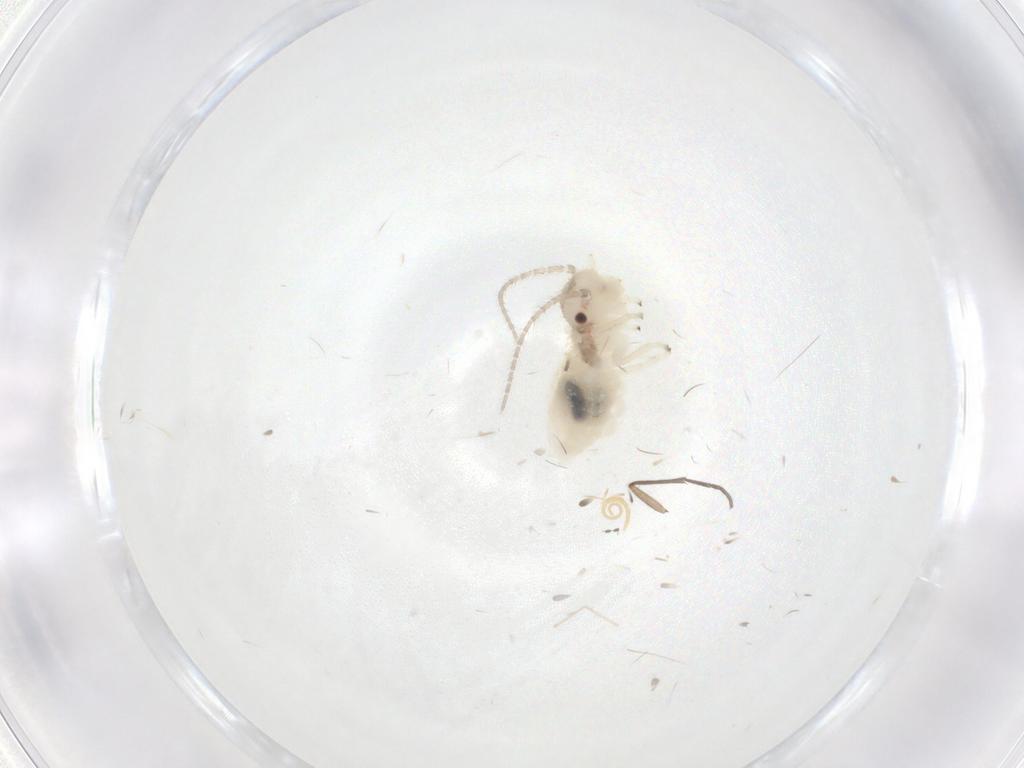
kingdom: Animalia
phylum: Arthropoda
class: Insecta
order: Psocodea
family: Amphipsocidae
